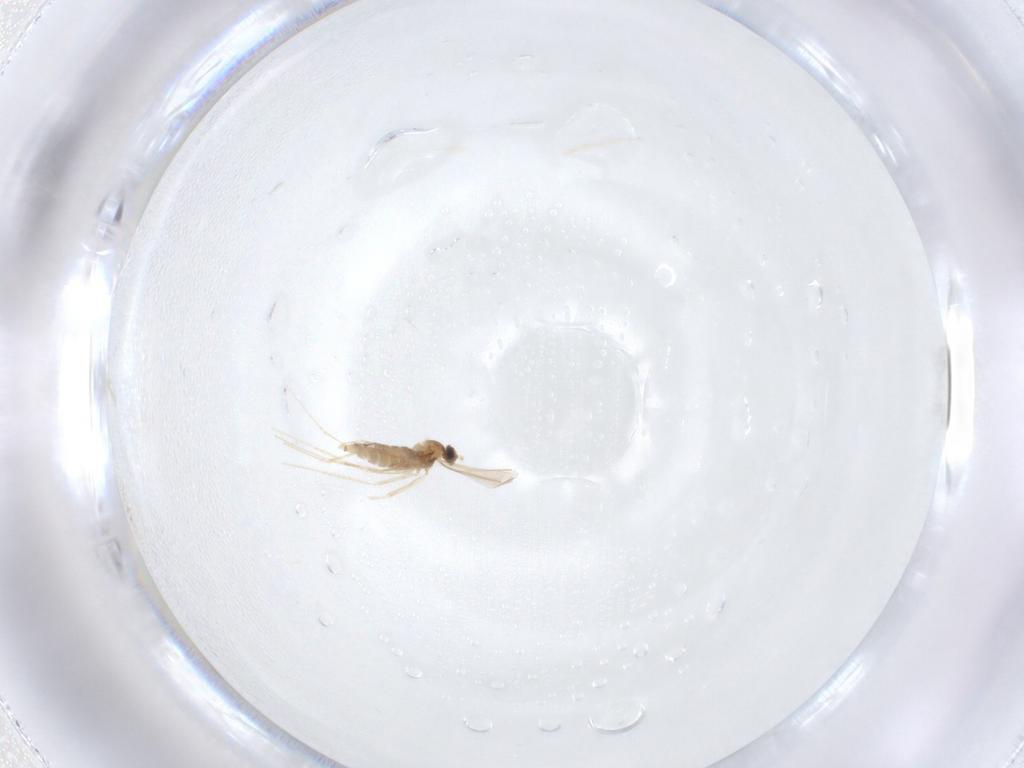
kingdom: Animalia
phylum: Arthropoda
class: Insecta
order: Diptera
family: Cecidomyiidae
